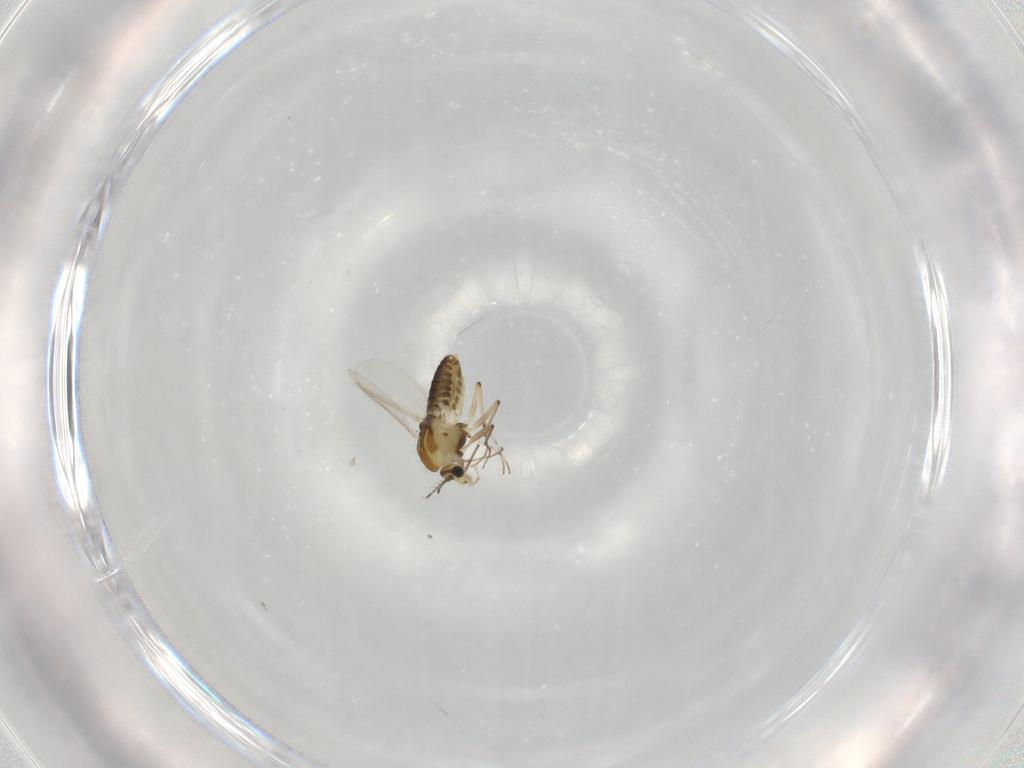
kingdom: Animalia
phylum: Arthropoda
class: Insecta
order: Diptera
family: Chironomidae
